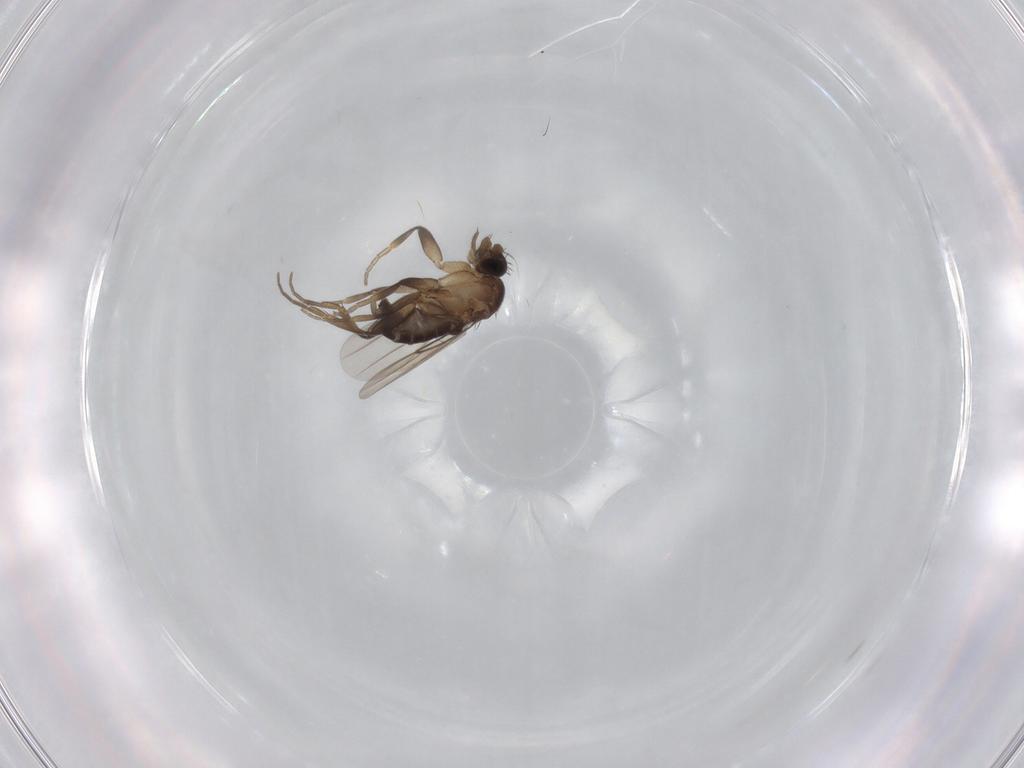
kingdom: Animalia
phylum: Arthropoda
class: Insecta
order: Diptera
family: Phoridae
